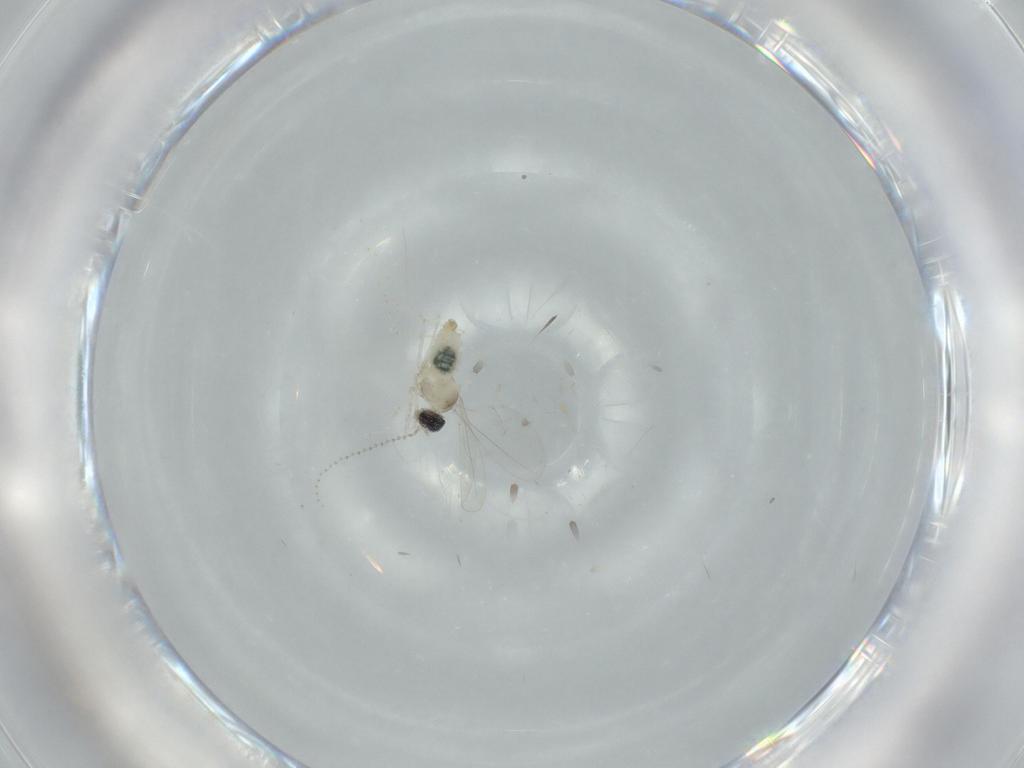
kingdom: Animalia
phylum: Arthropoda
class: Insecta
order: Diptera
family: Cecidomyiidae
